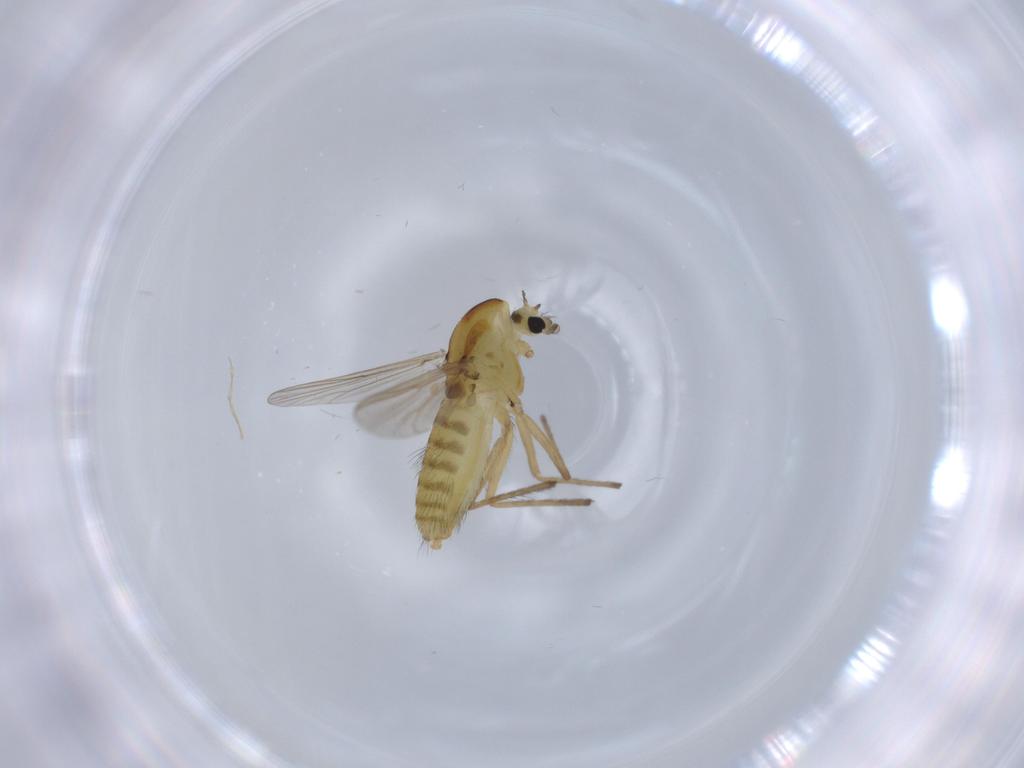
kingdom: Animalia
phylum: Arthropoda
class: Insecta
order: Diptera
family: Chironomidae
